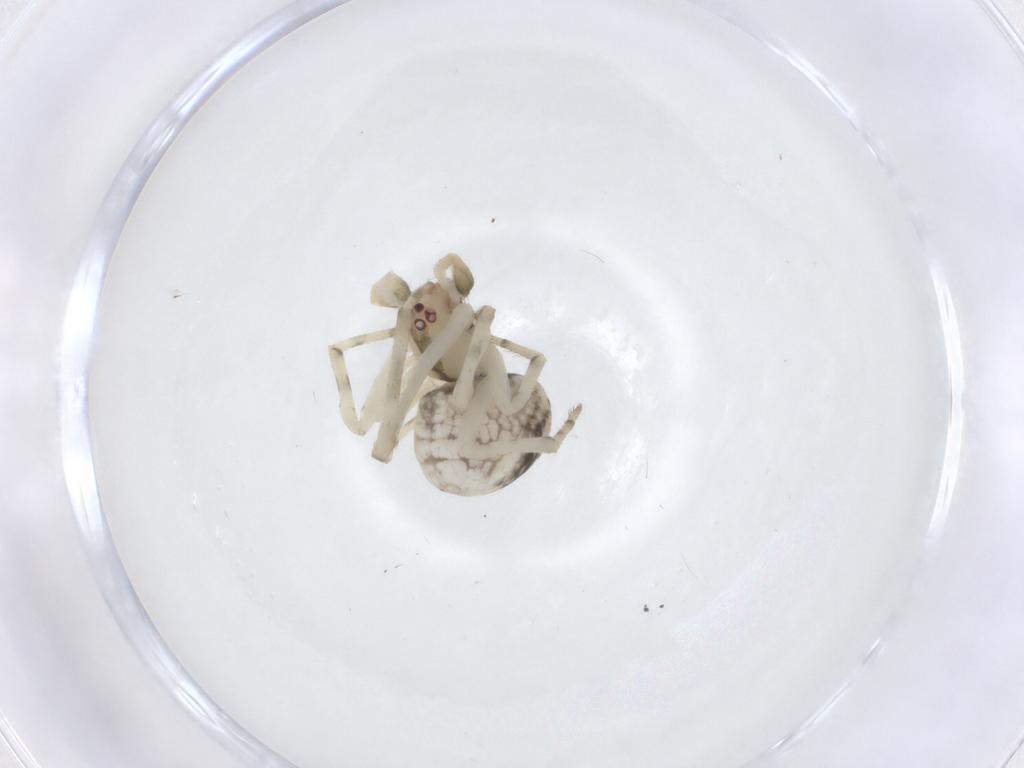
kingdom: Animalia
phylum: Arthropoda
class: Arachnida
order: Araneae
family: Theridiidae
